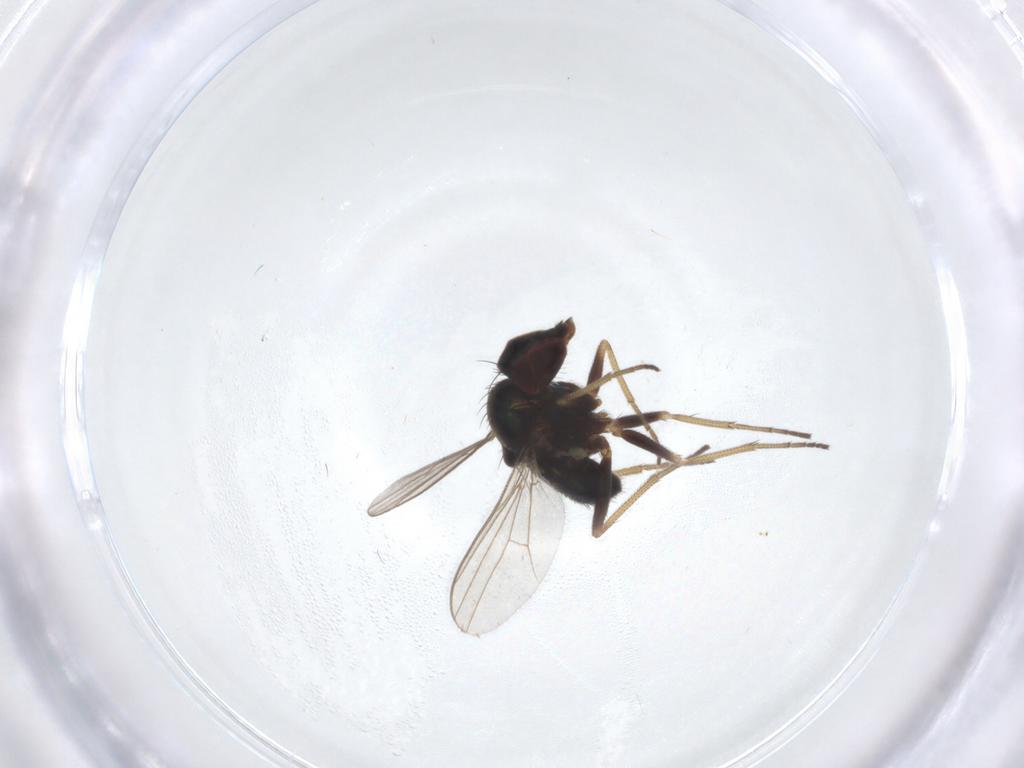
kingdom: Animalia
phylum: Arthropoda
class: Insecta
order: Diptera
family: Dolichopodidae
